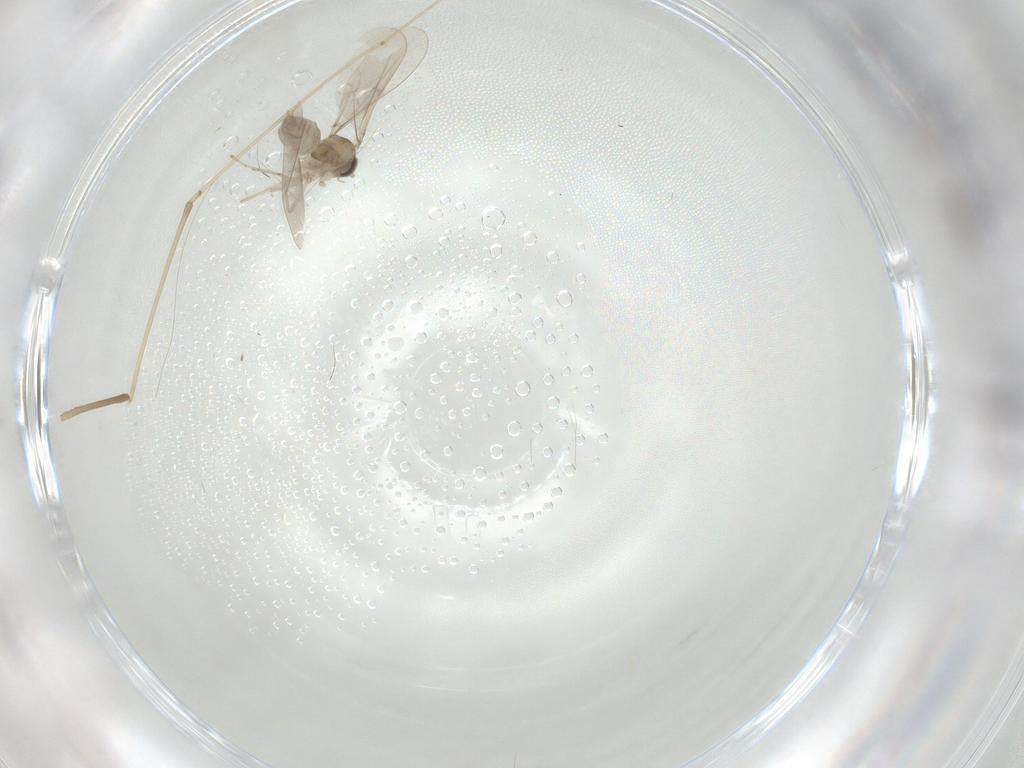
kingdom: Animalia
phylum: Arthropoda
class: Insecta
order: Diptera
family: Cecidomyiidae
